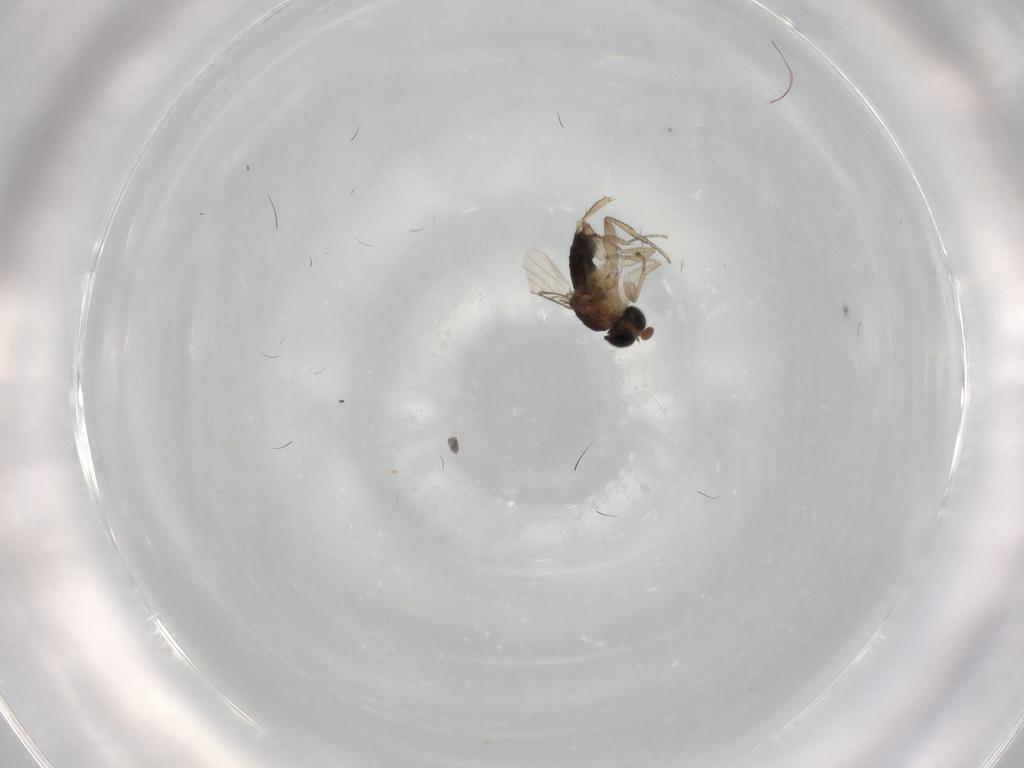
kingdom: Animalia
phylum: Arthropoda
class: Insecta
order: Diptera
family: Phoridae
